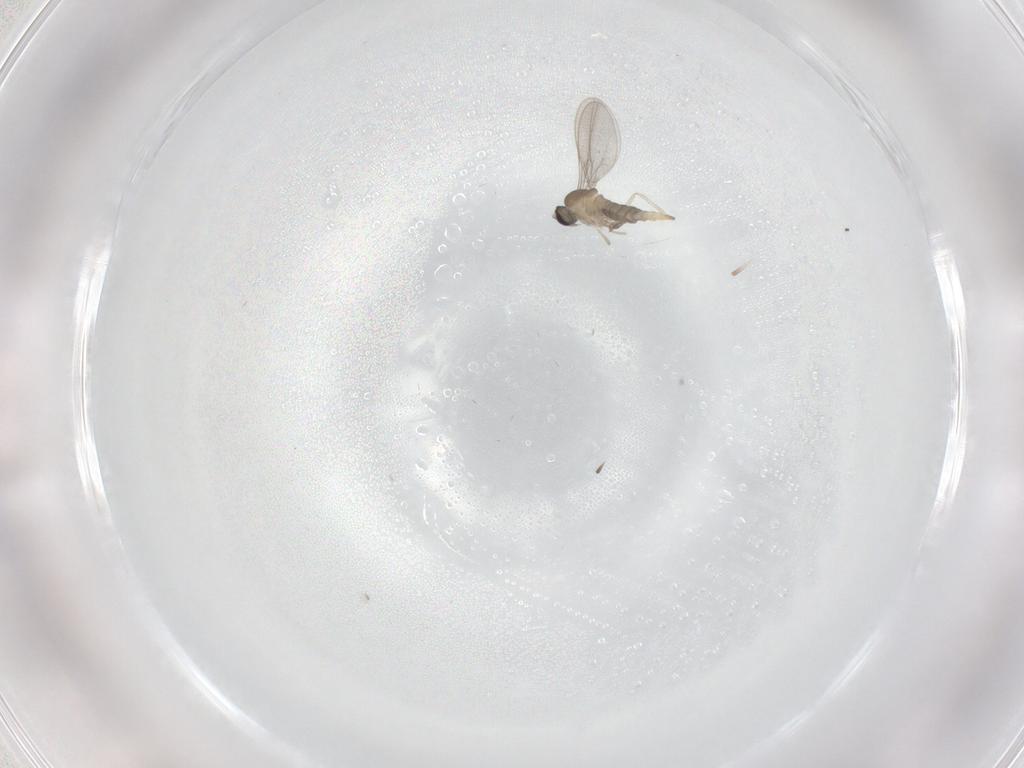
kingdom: Animalia
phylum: Arthropoda
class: Insecta
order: Diptera
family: Cecidomyiidae
